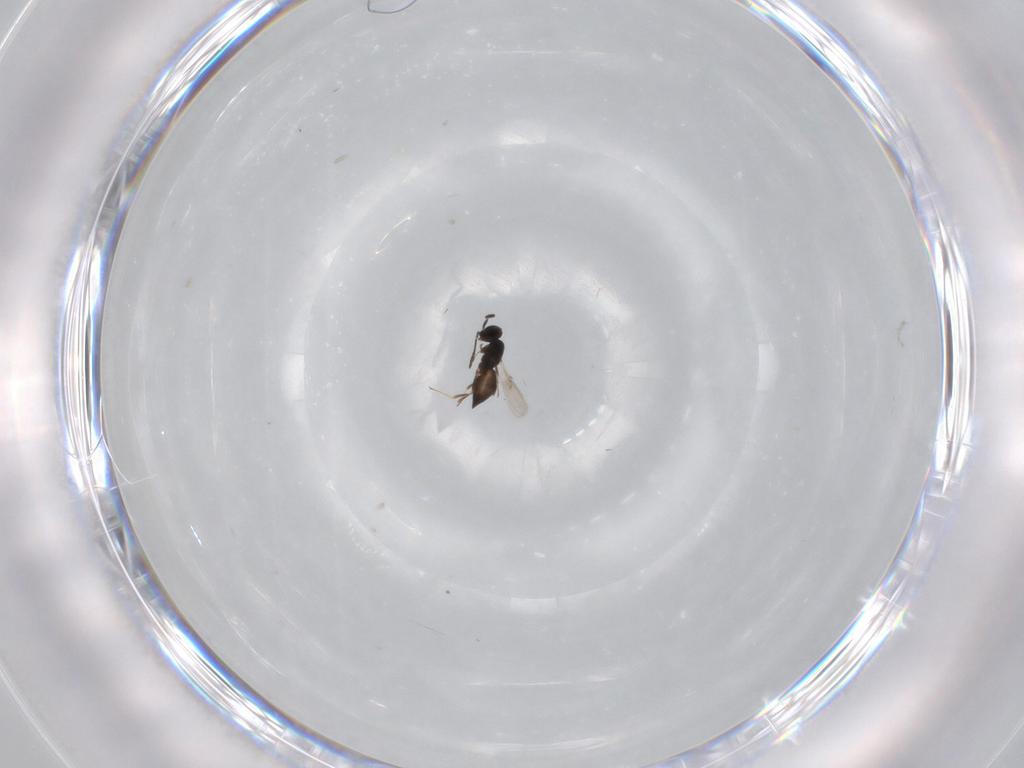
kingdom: Animalia
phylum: Arthropoda
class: Insecta
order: Hymenoptera
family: Scelionidae
